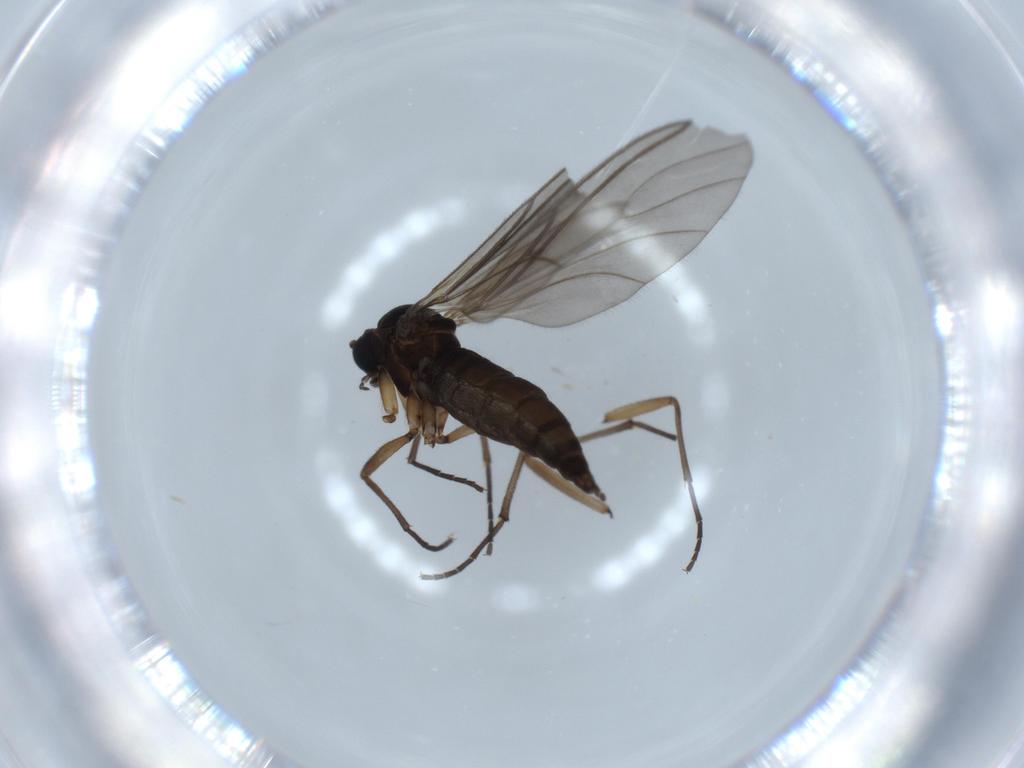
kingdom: Animalia
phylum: Arthropoda
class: Insecta
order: Diptera
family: Sciaridae
